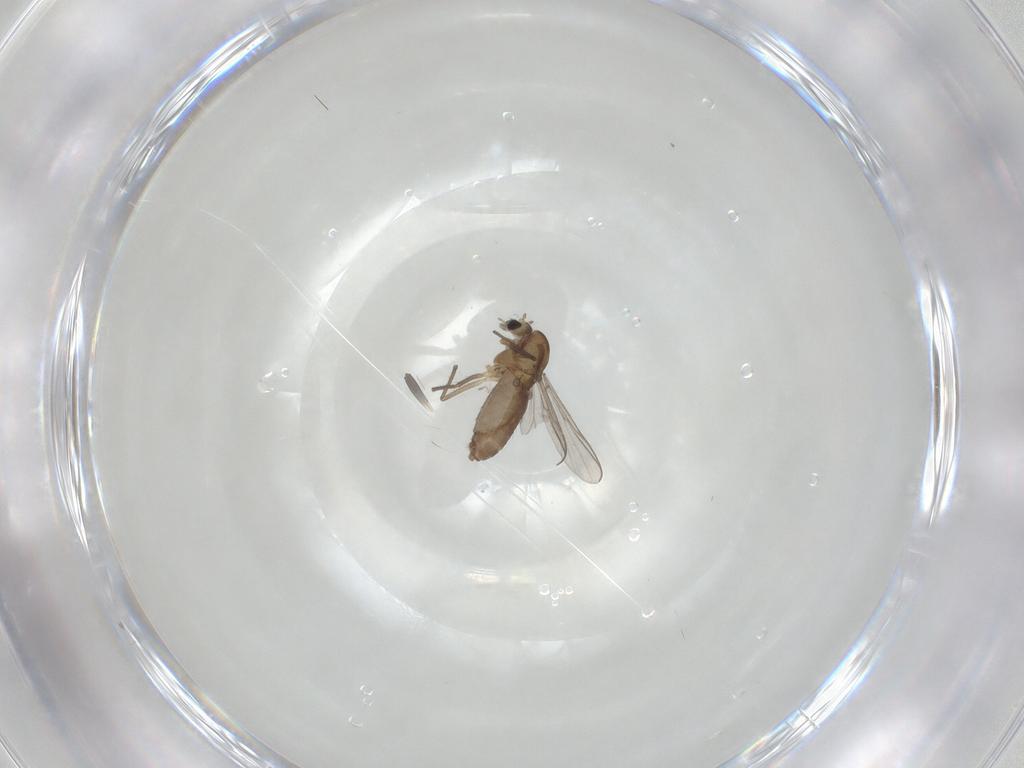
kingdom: Animalia
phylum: Arthropoda
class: Insecta
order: Diptera
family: Chironomidae
